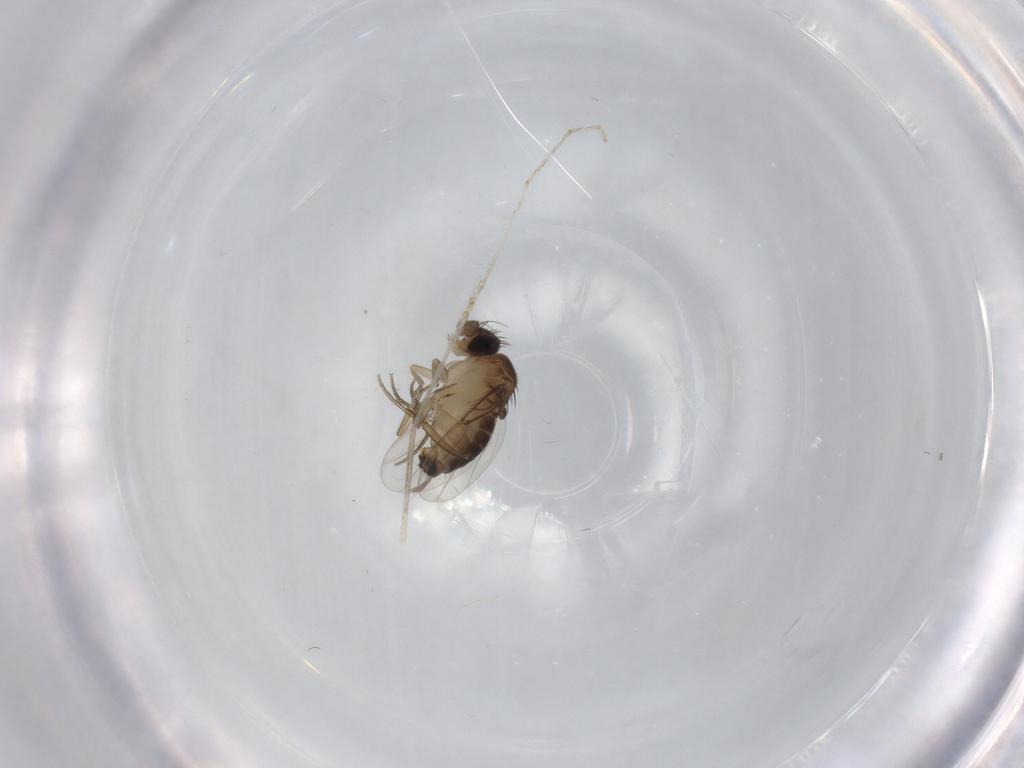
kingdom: Animalia
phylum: Arthropoda
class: Insecta
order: Diptera
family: Cecidomyiidae
